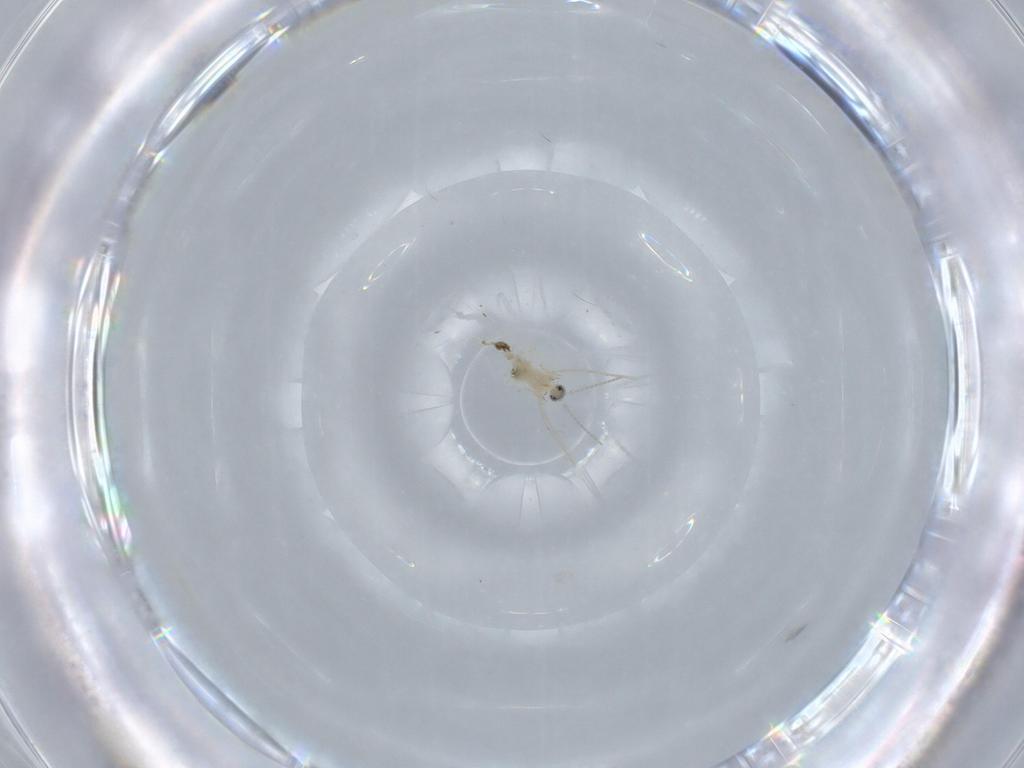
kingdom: Animalia
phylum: Arthropoda
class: Insecta
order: Diptera
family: Cecidomyiidae
